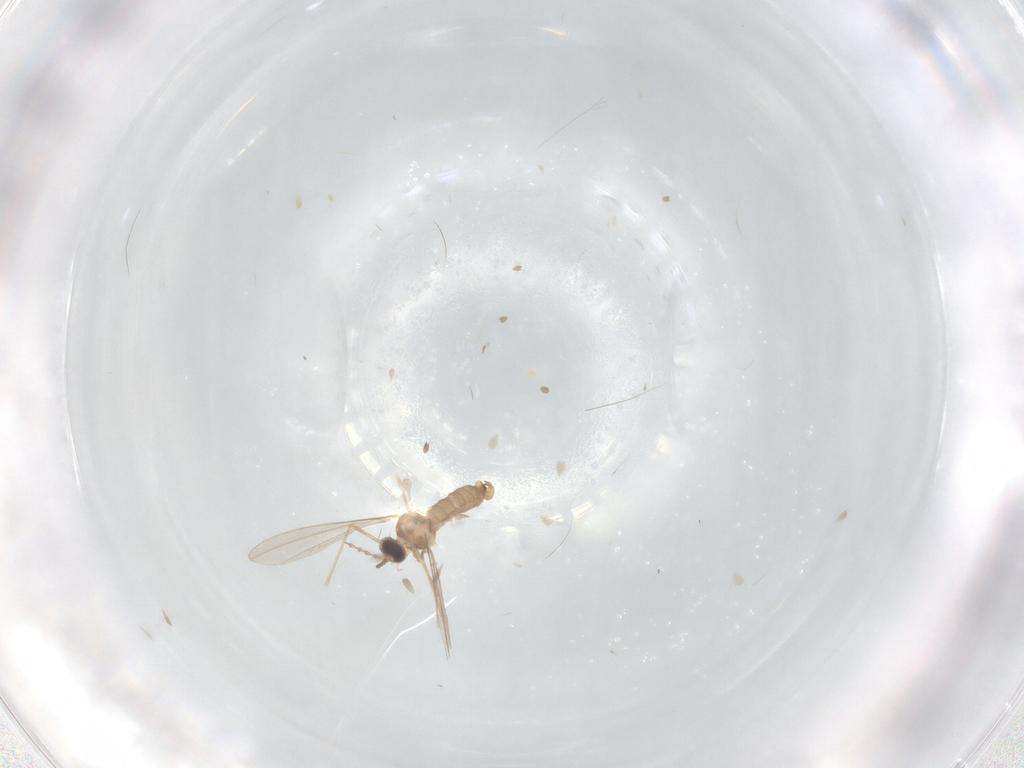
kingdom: Animalia
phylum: Arthropoda
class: Insecta
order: Diptera
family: Cecidomyiidae
